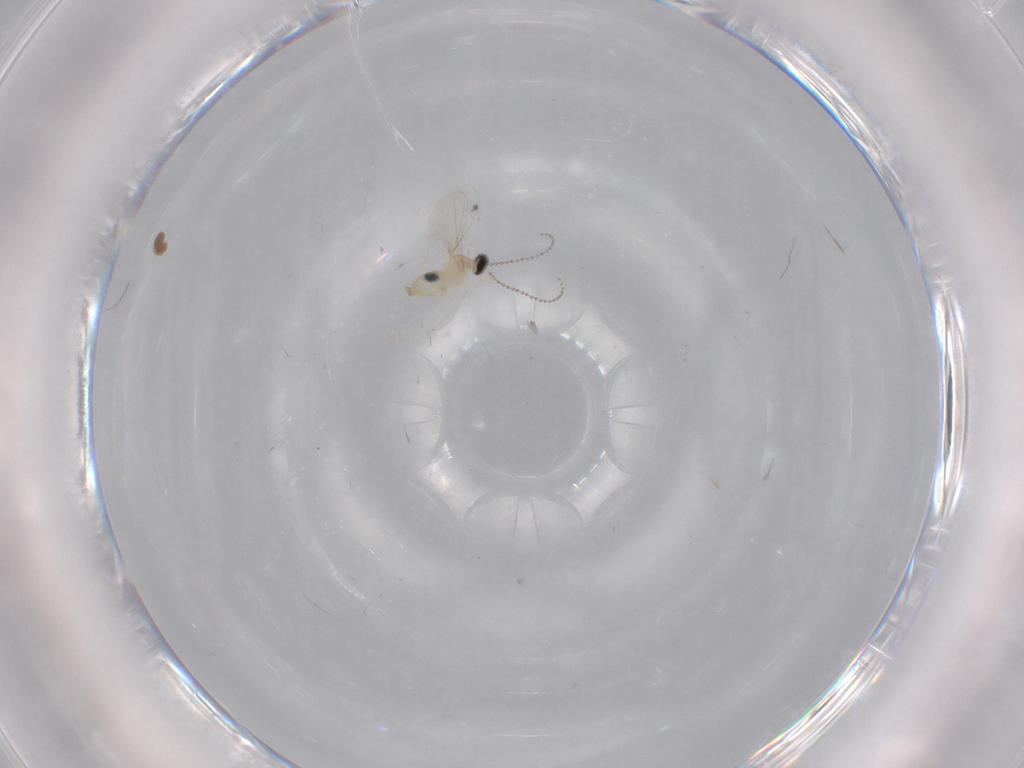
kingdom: Animalia
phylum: Arthropoda
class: Insecta
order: Diptera
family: Cecidomyiidae
